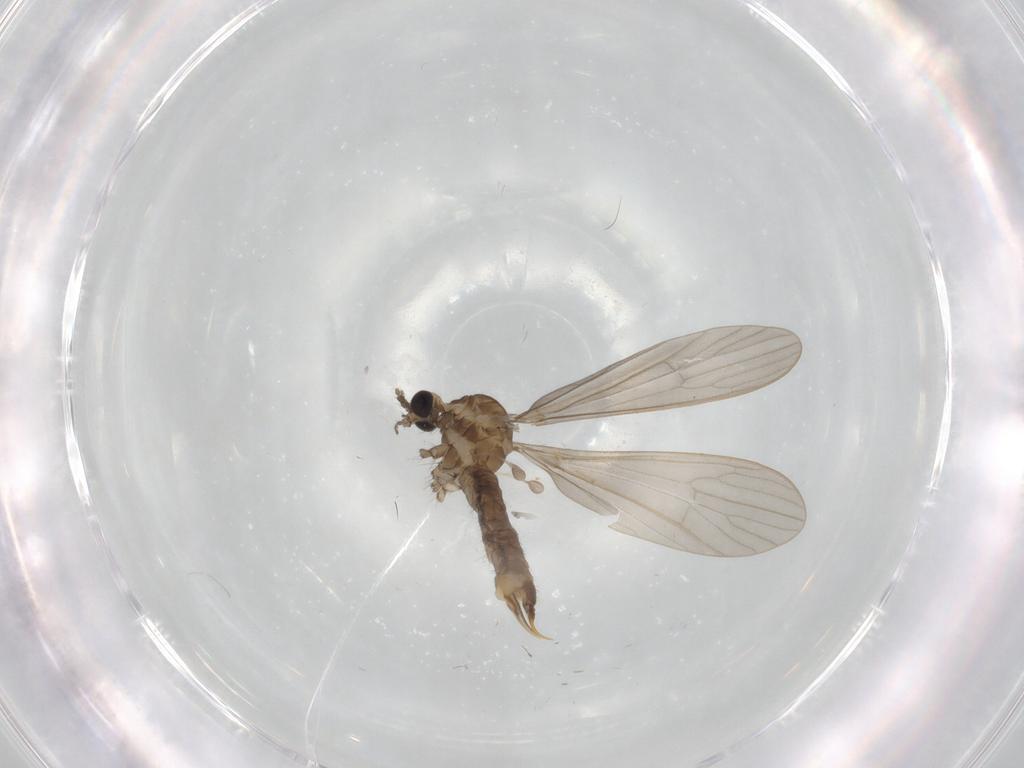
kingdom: Animalia
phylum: Arthropoda
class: Insecta
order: Diptera
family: Limoniidae
